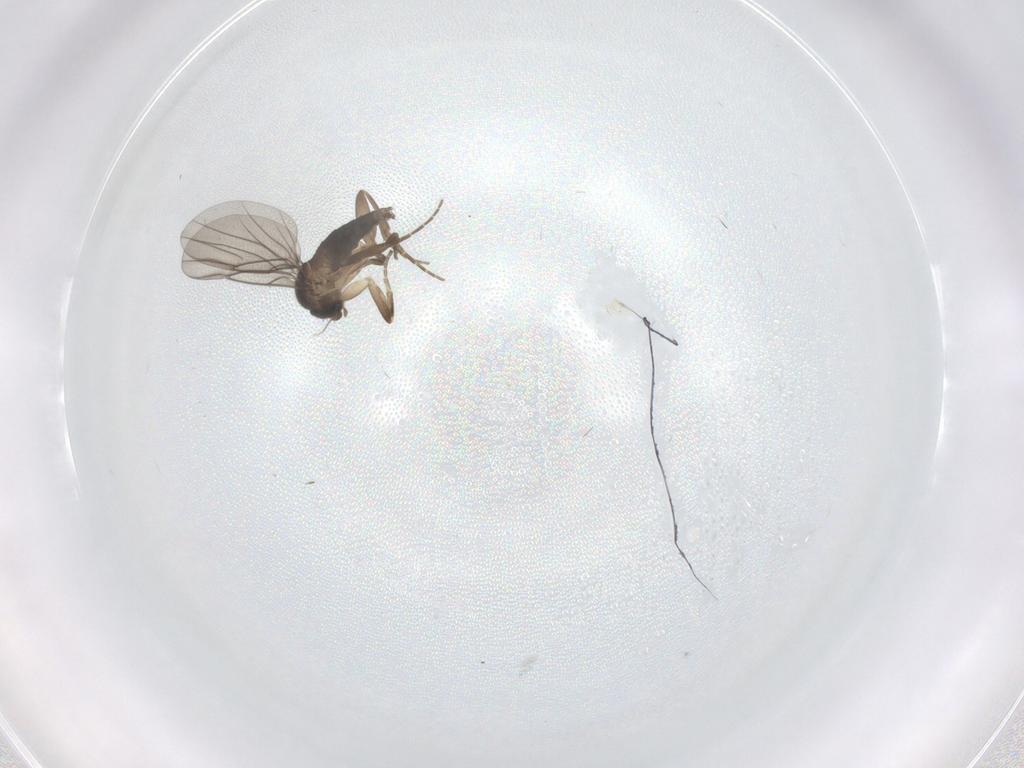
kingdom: Animalia
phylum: Arthropoda
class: Insecta
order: Diptera
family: Phoridae
